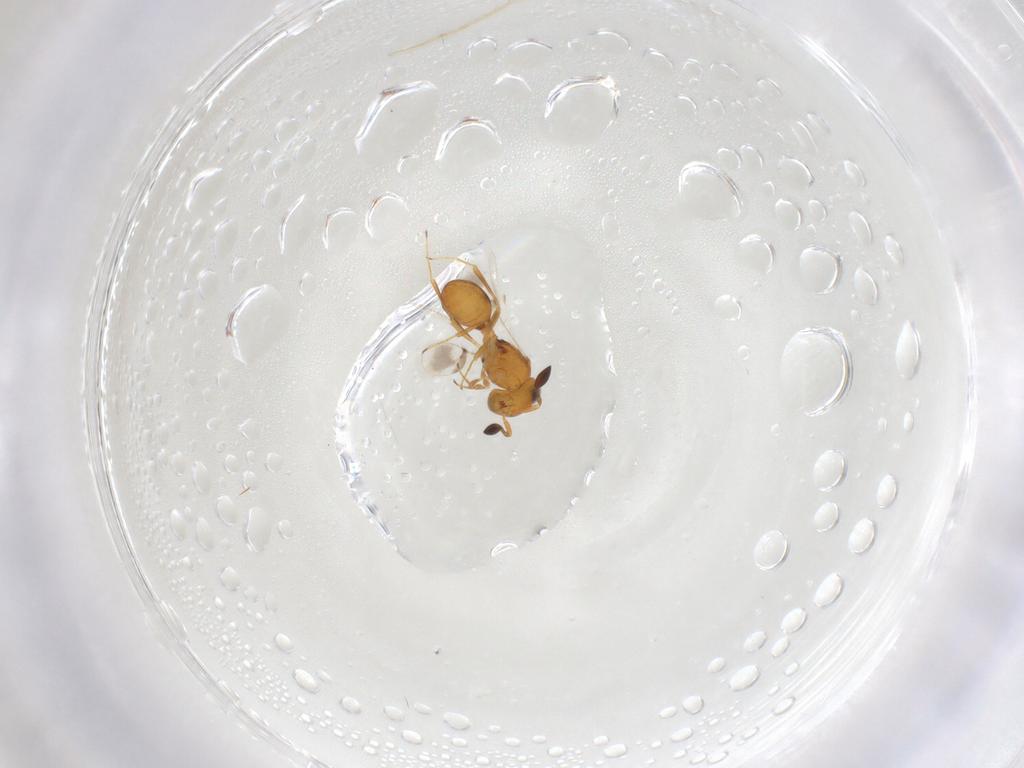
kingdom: Animalia
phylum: Arthropoda
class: Insecta
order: Hymenoptera
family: Scelionidae
